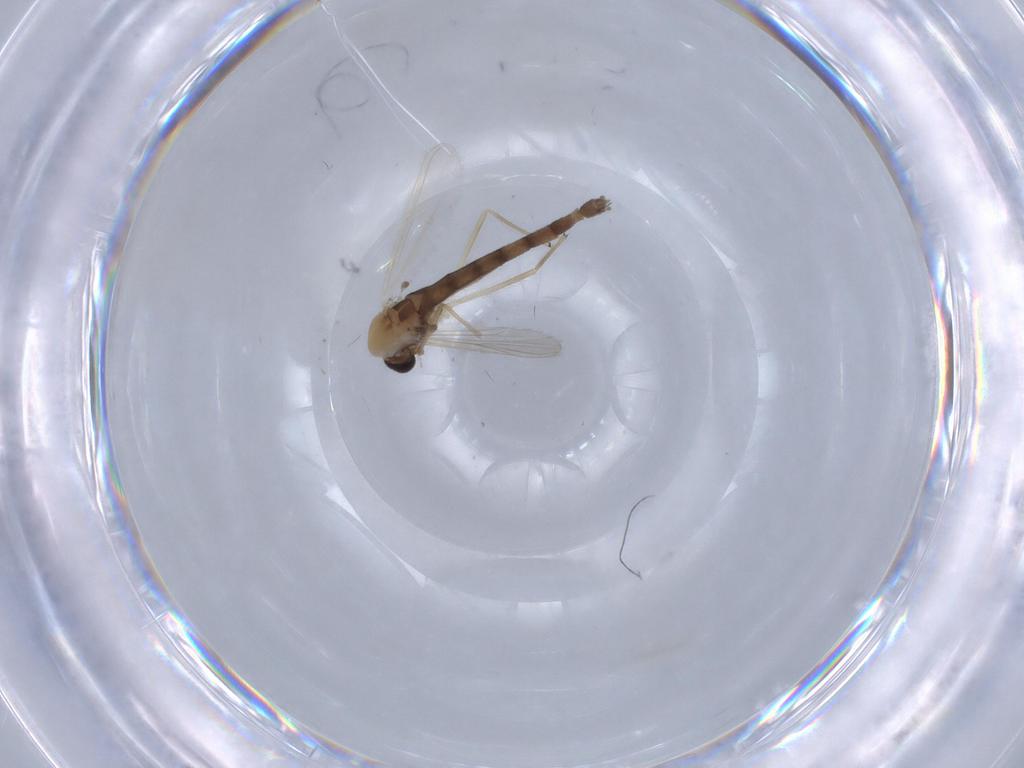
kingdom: Animalia
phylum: Arthropoda
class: Insecta
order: Diptera
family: Chironomidae
